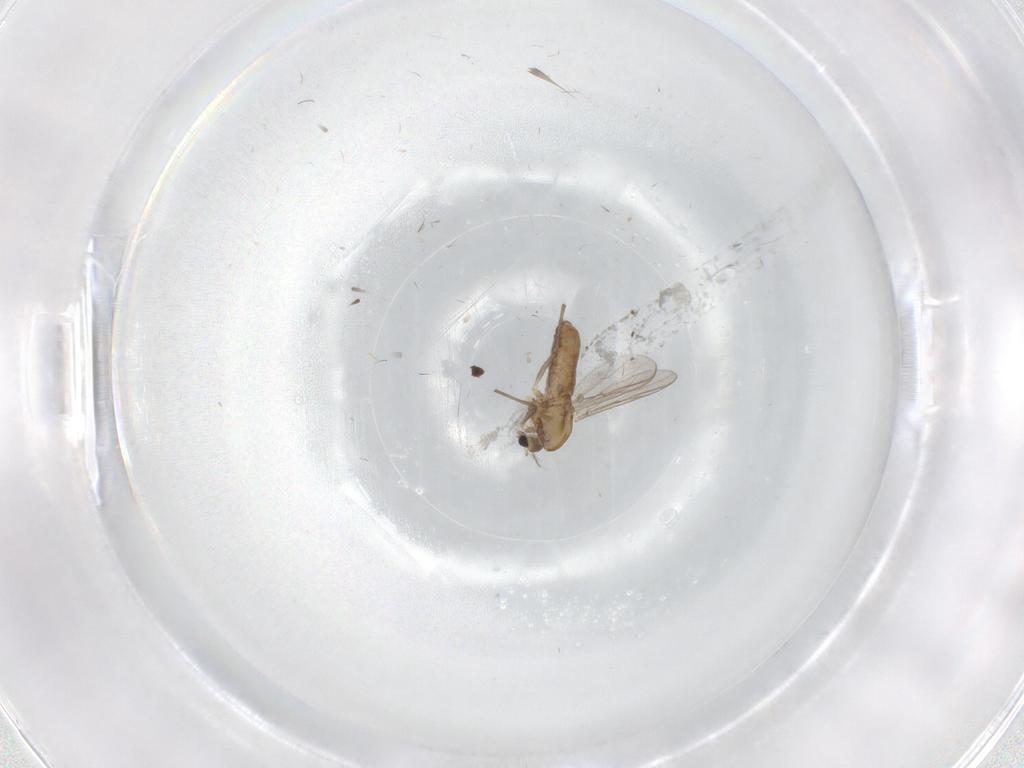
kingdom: Animalia
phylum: Arthropoda
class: Insecta
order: Diptera
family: Chironomidae
